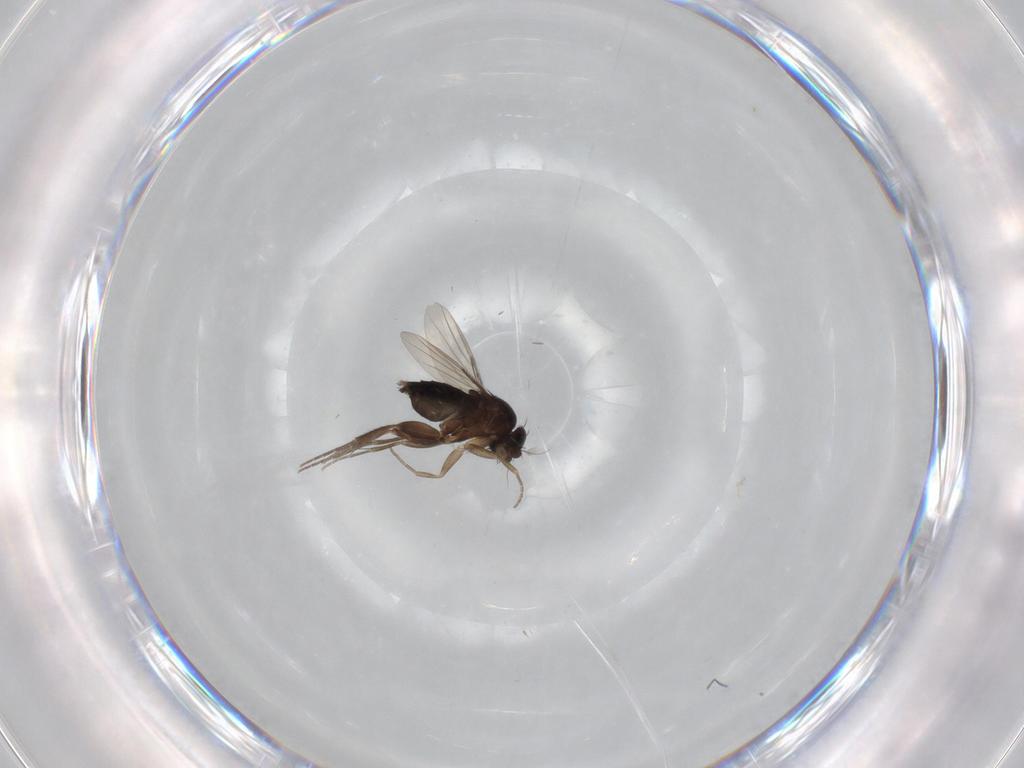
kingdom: Animalia
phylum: Arthropoda
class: Insecta
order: Diptera
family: Phoridae
